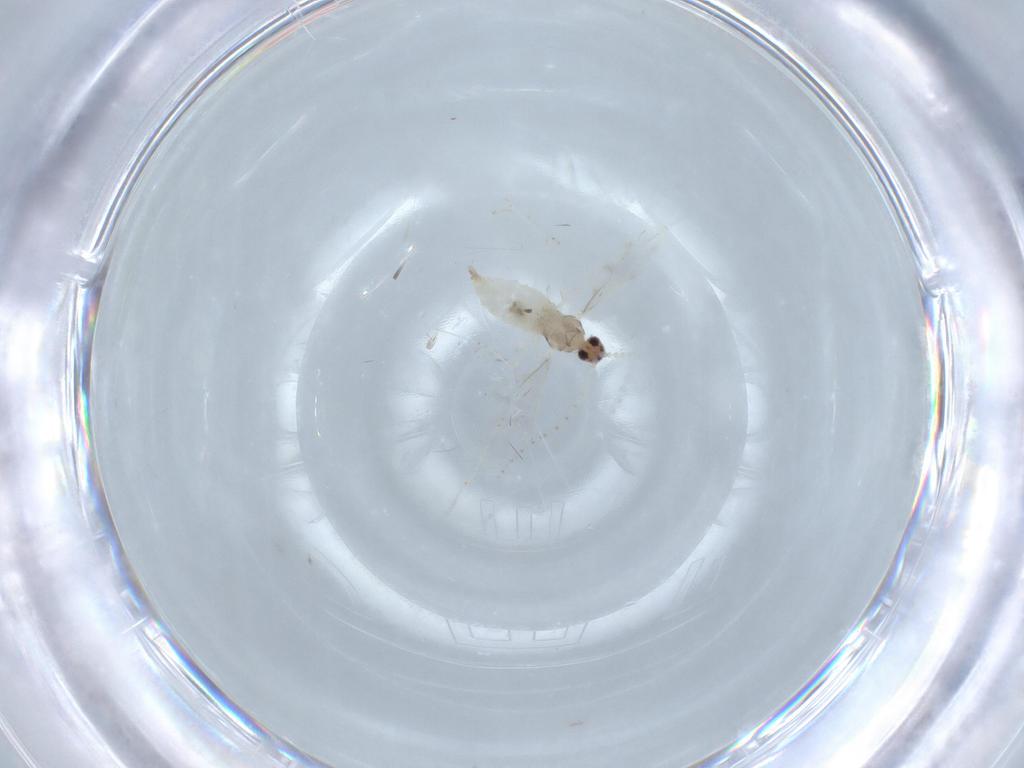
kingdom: Animalia
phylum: Arthropoda
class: Insecta
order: Diptera
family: Cecidomyiidae
